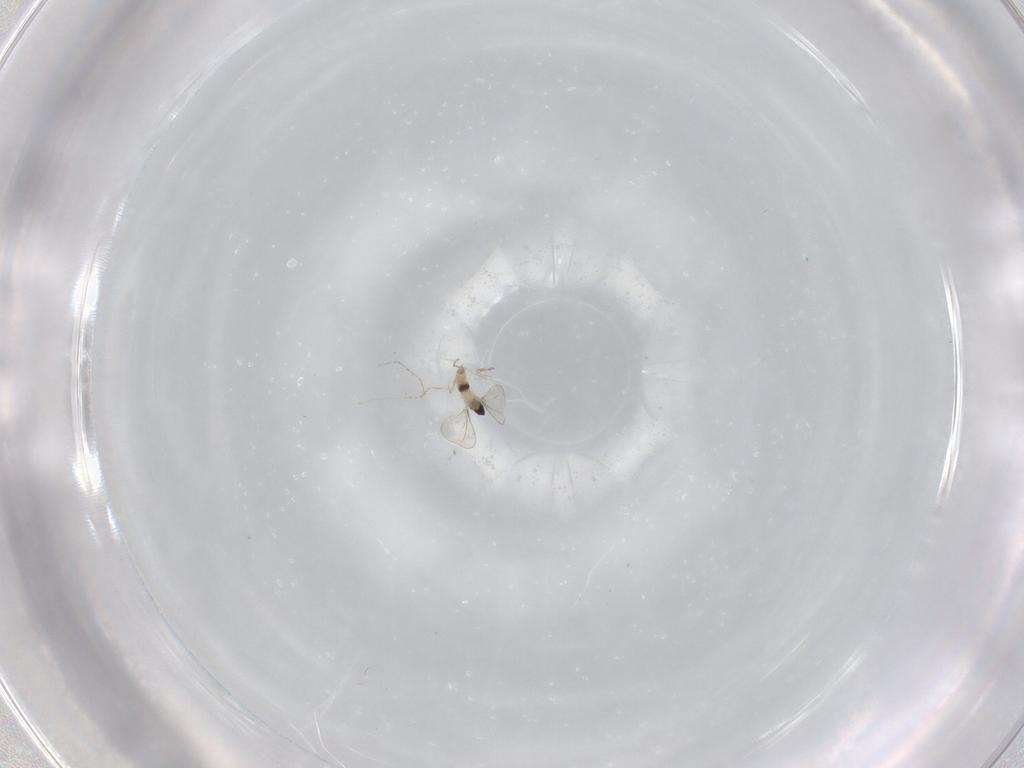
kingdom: Animalia
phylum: Arthropoda
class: Insecta
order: Diptera
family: Cecidomyiidae
